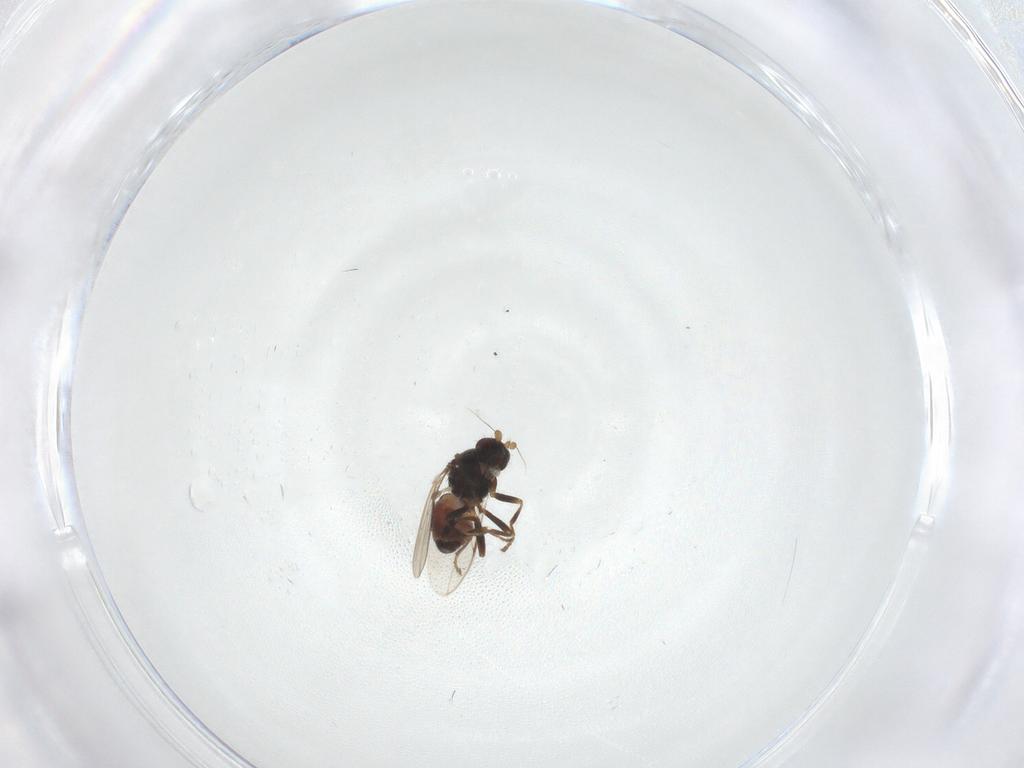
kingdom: Animalia
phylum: Arthropoda
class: Insecta
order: Diptera
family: Sphaeroceridae
